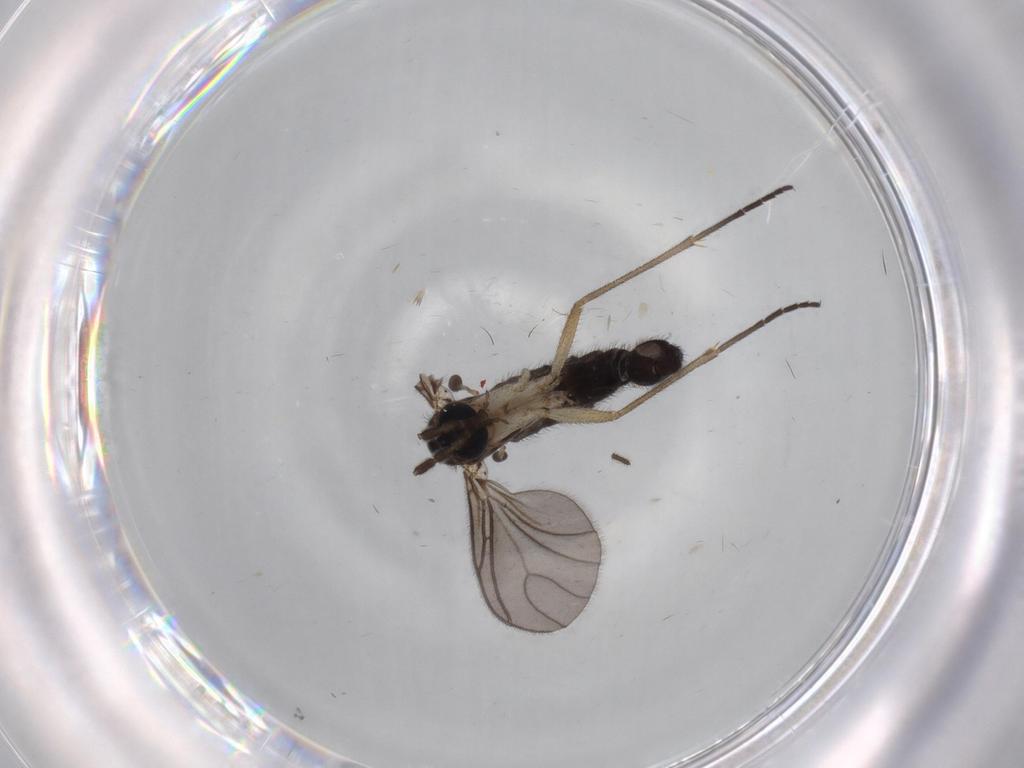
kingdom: Animalia
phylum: Arthropoda
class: Insecta
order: Diptera
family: Sciaridae
